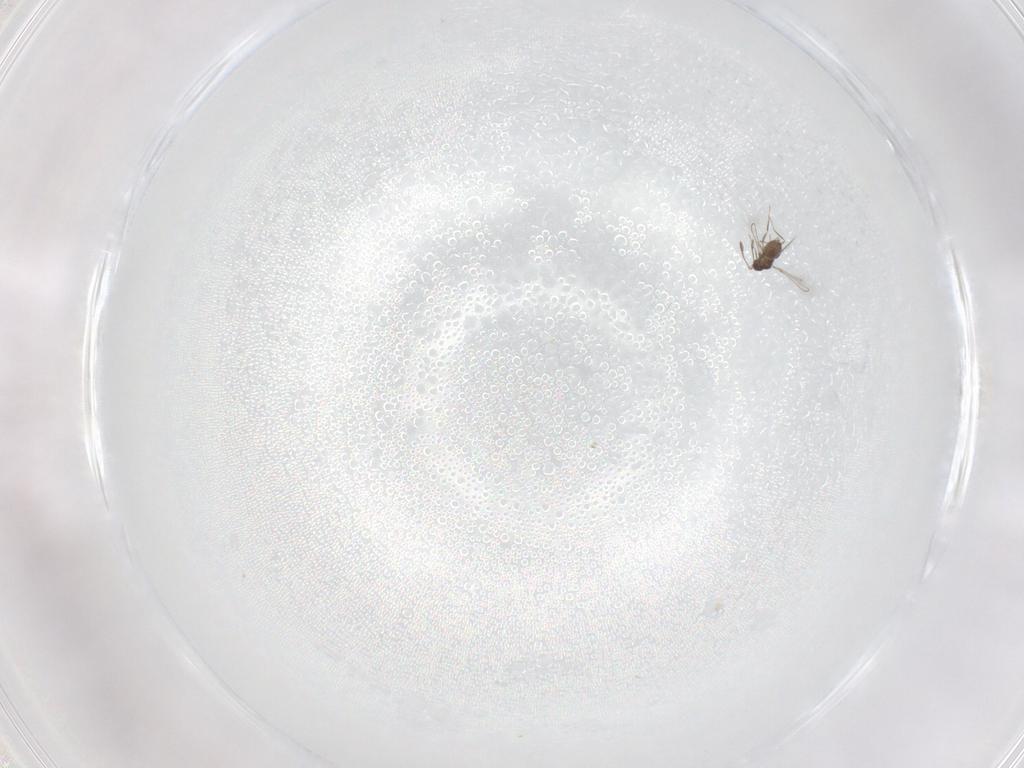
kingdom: Animalia
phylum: Arthropoda
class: Insecta
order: Hymenoptera
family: Mymaridae
